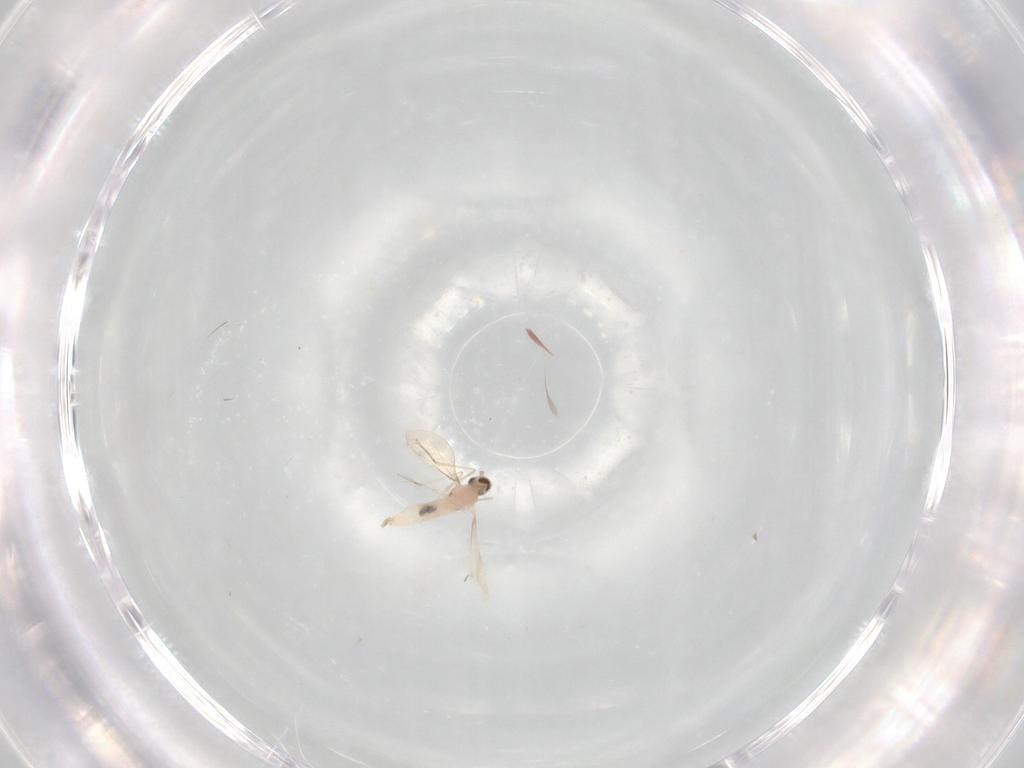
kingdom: Animalia
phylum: Arthropoda
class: Insecta
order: Diptera
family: Cecidomyiidae
